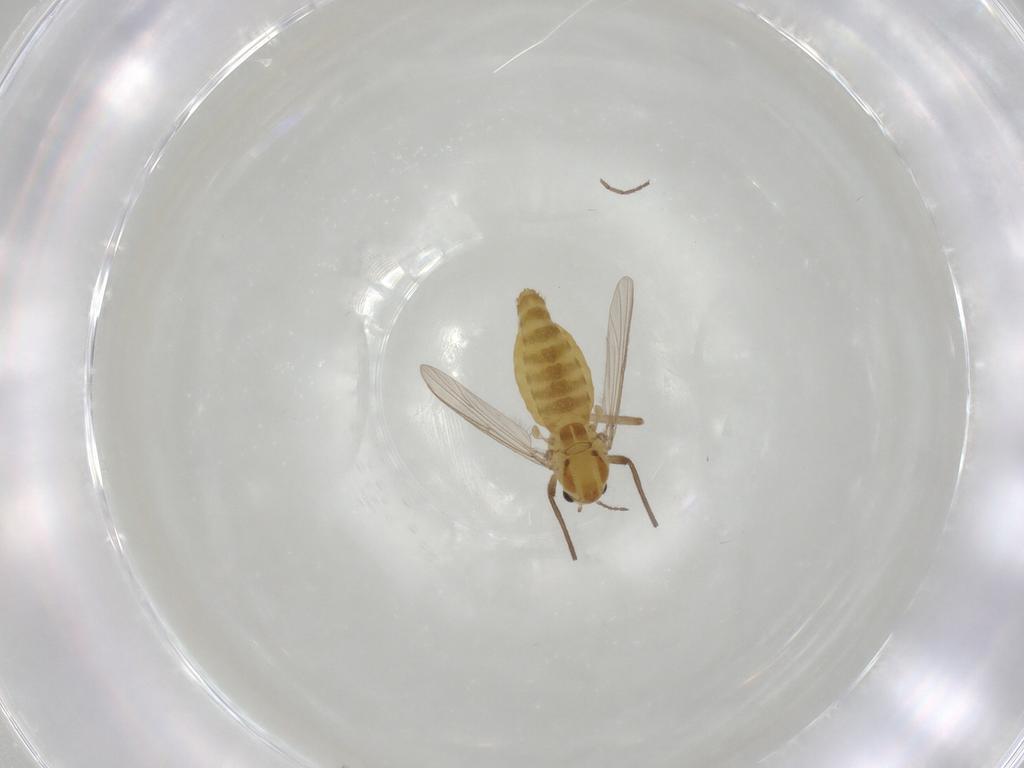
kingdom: Animalia
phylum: Arthropoda
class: Insecta
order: Diptera
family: Chironomidae
